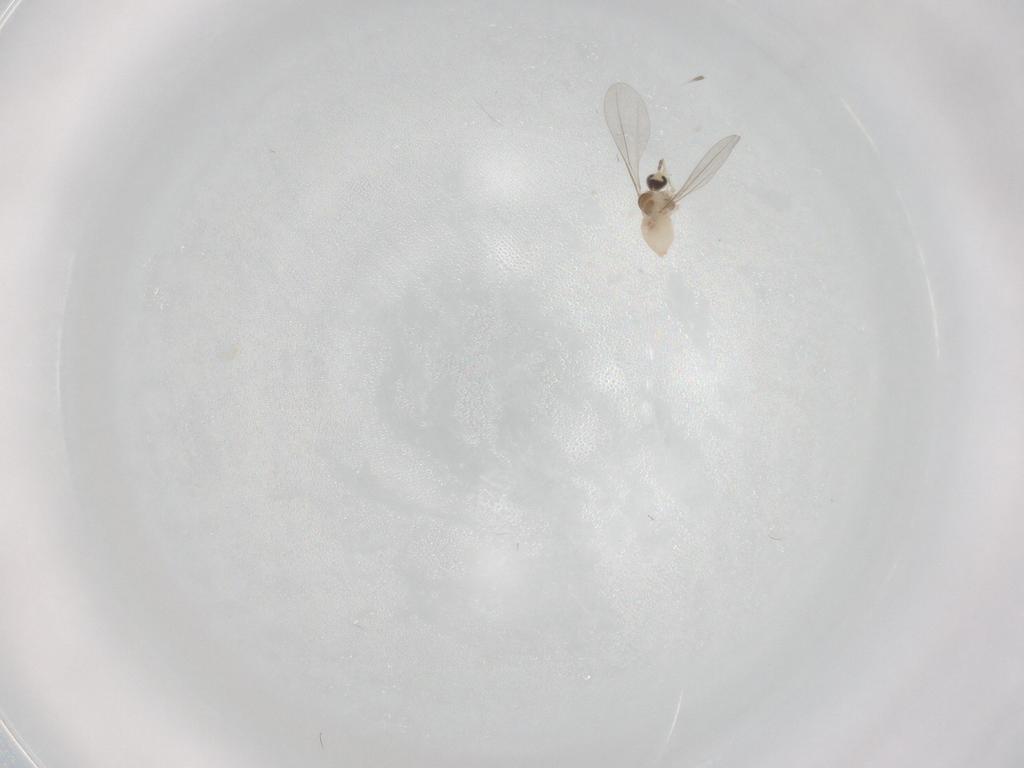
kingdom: Animalia
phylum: Arthropoda
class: Insecta
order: Diptera
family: Cecidomyiidae
